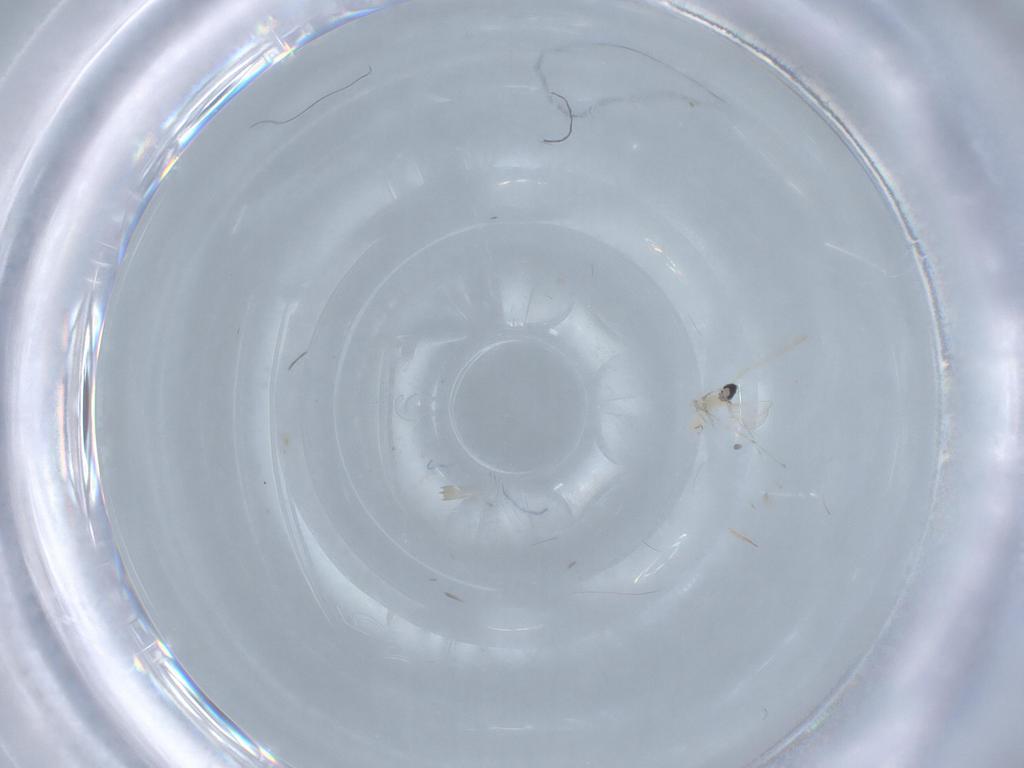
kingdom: Animalia
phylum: Arthropoda
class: Insecta
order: Diptera
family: Cecidomyiidae
